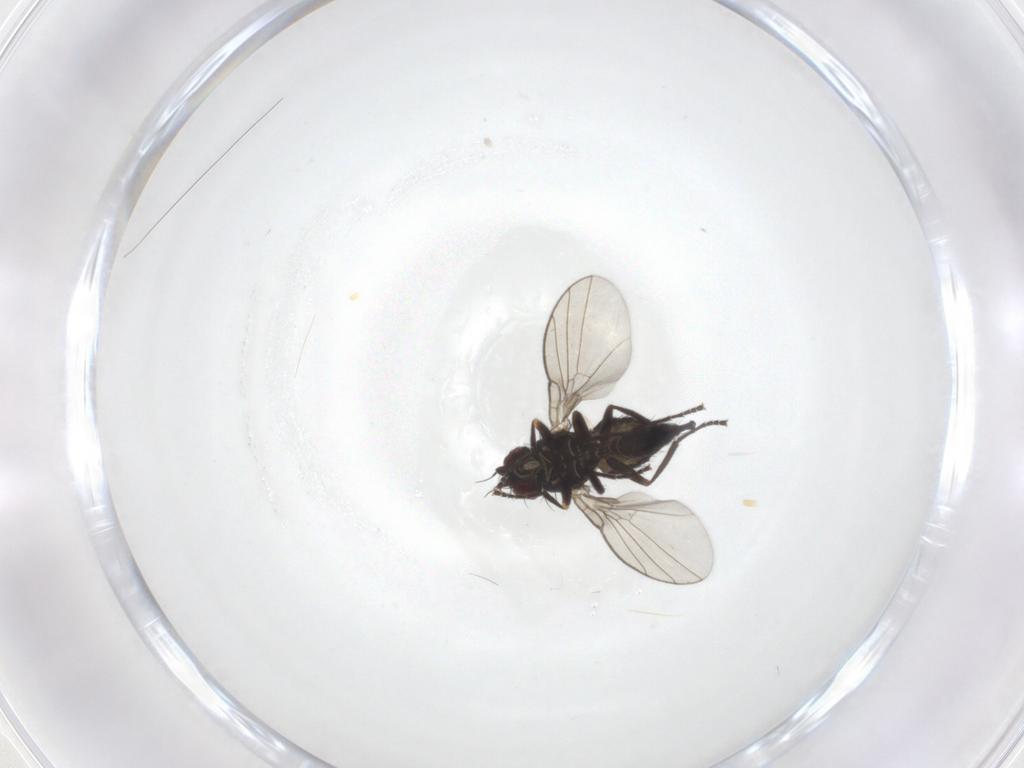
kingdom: Animalia
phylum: Arthropoda
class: Insecta
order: Diptera
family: Agromyzidae
